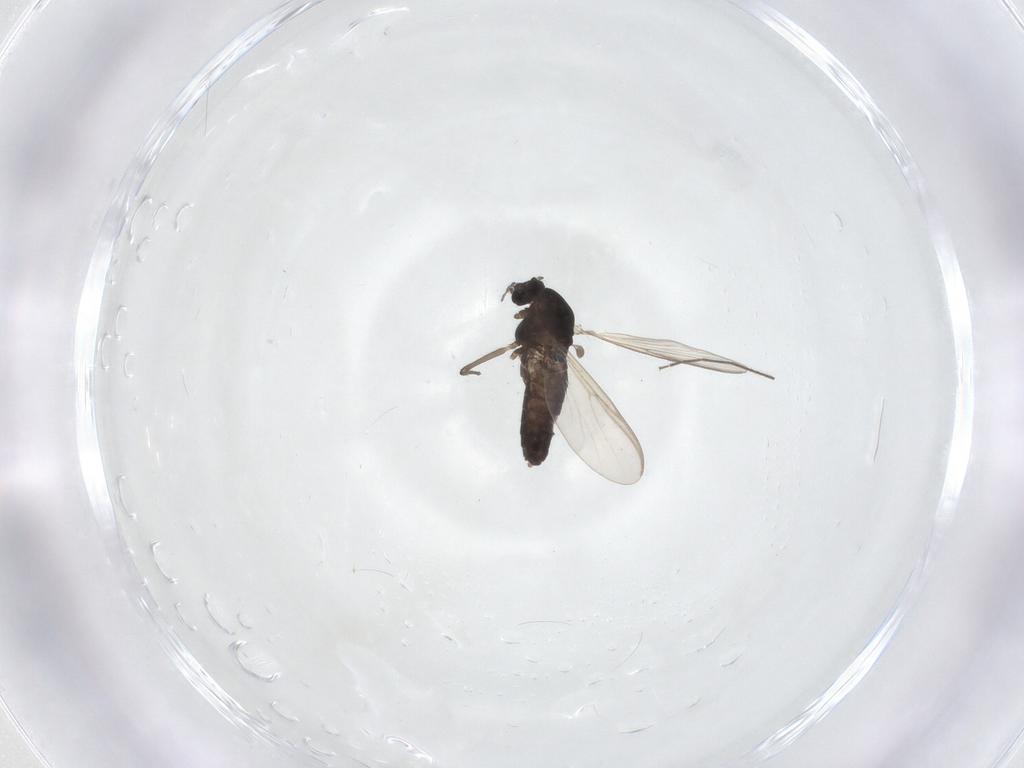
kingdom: Animalia
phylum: Arthropoda
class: Insecta
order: Diptera
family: Chironomidae
